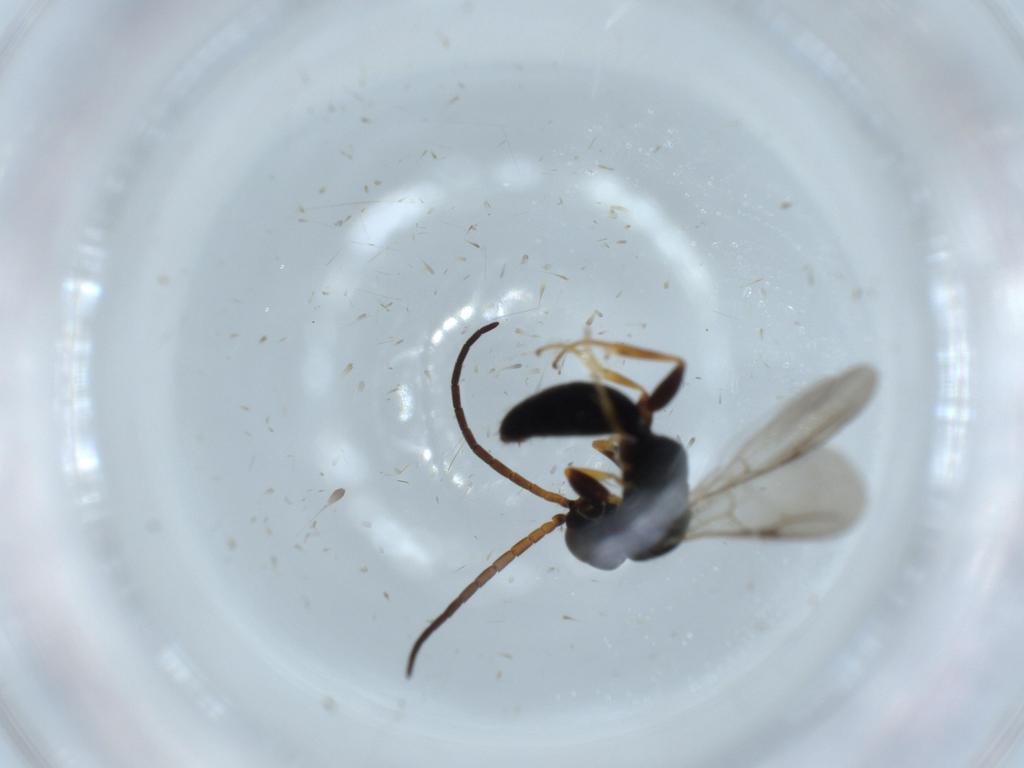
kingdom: Animalia
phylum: Arthropoda
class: Insecta
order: Hymenoptera
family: Bethylidae
